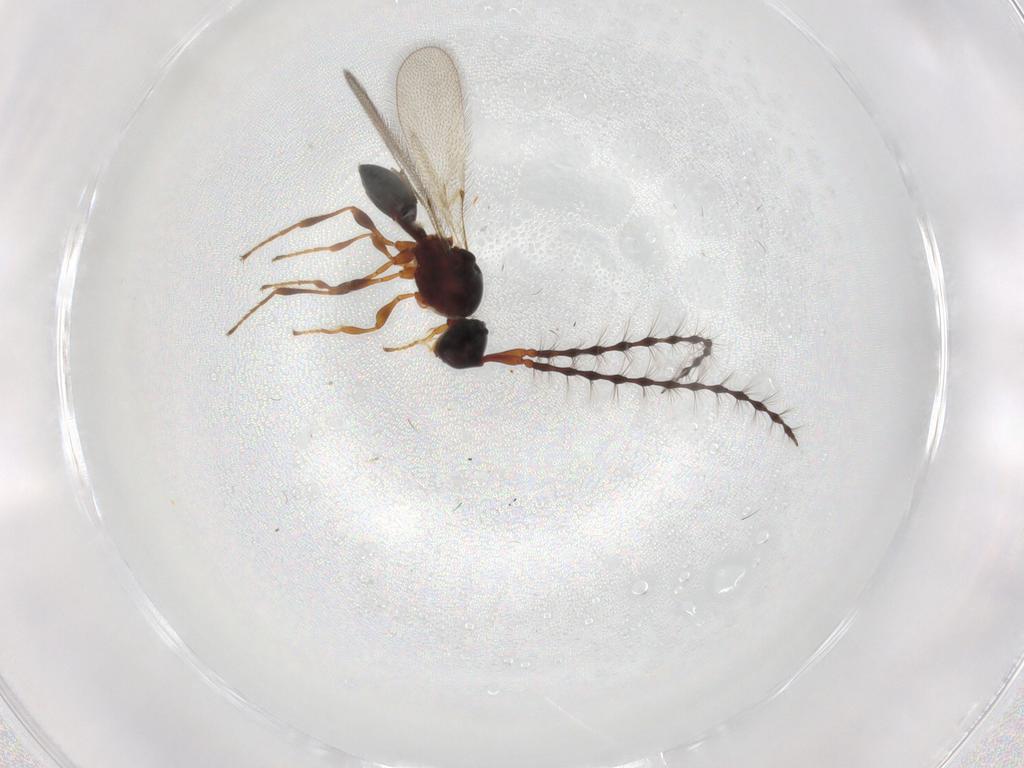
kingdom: Animalia
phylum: Arthropoda
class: Insecta
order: Hymenoptera
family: Diapriidae
